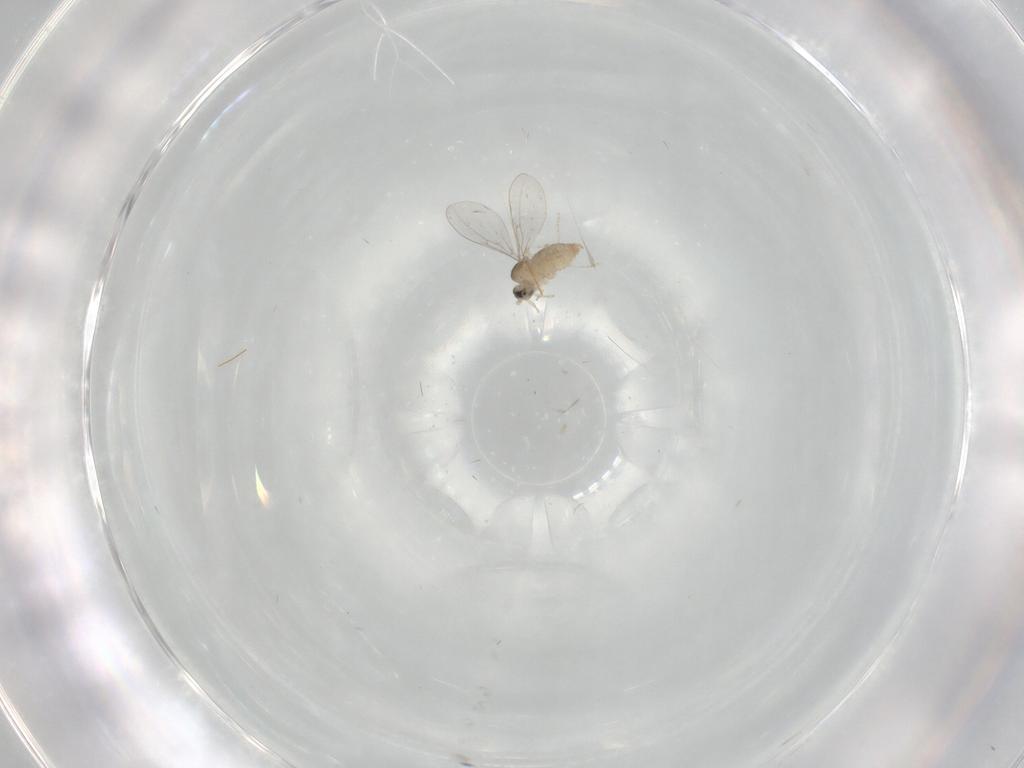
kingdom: Animalia
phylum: Arthropoda
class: Insecta
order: Diptera
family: Cecidomyiidae
